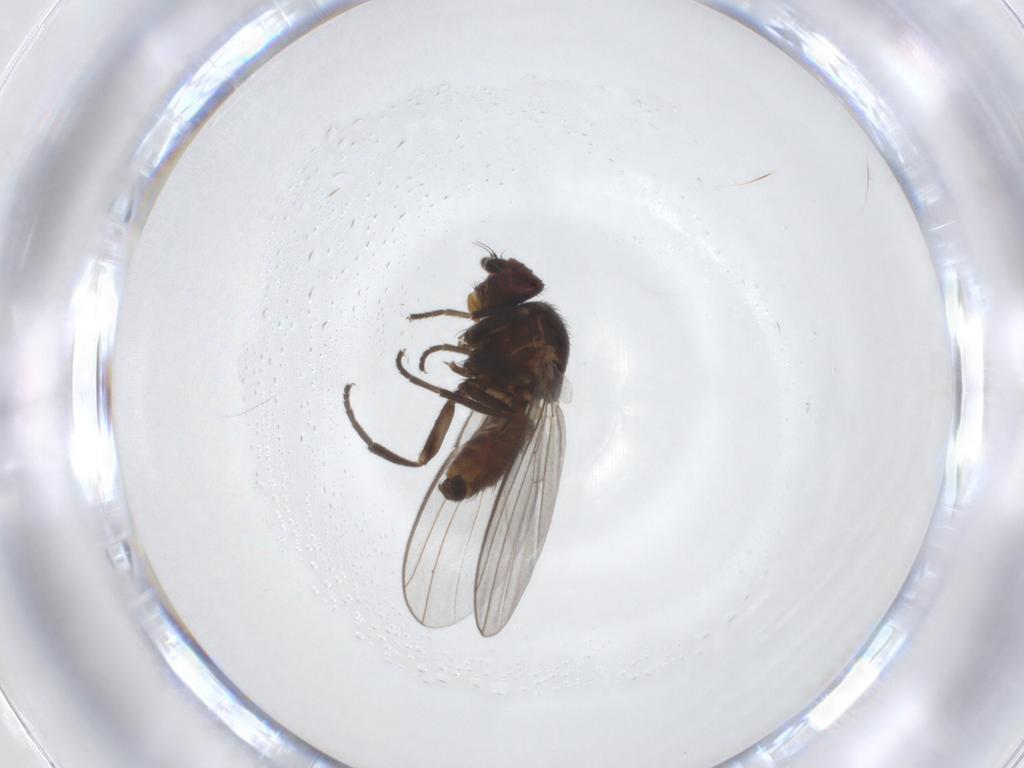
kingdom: Animalia
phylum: Arthropoda
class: Insecta
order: Diptera
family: Chironomidae
